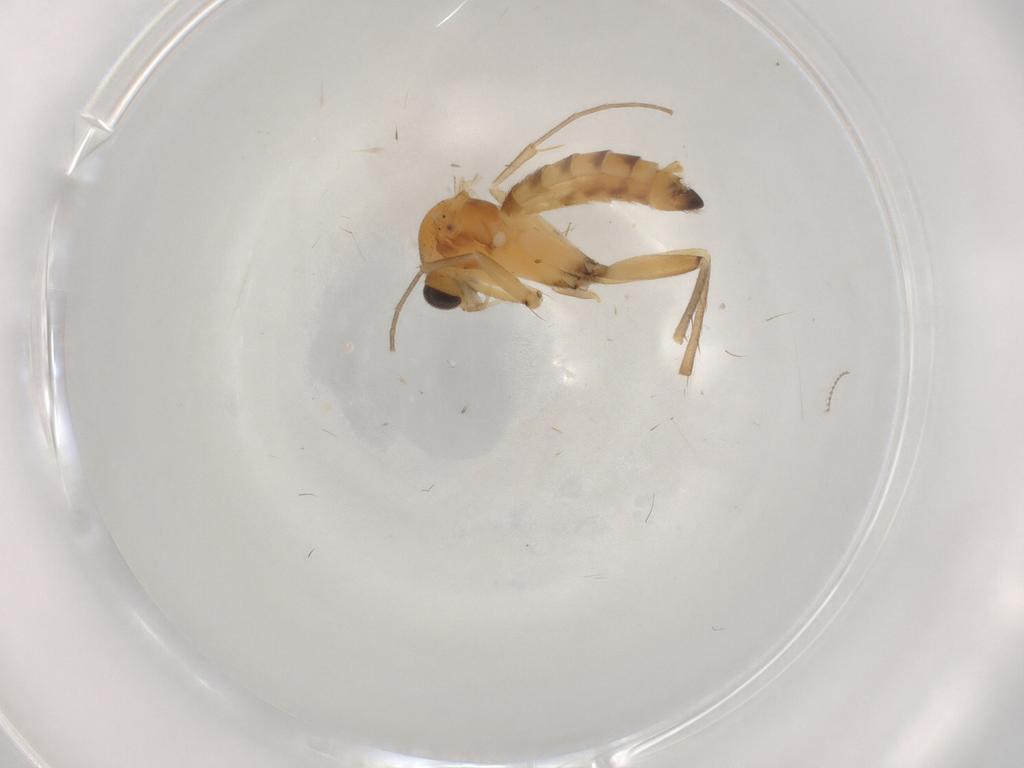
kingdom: Animalia
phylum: Arthropoda
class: Insecta
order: Diptera
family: Mycetophilidae
